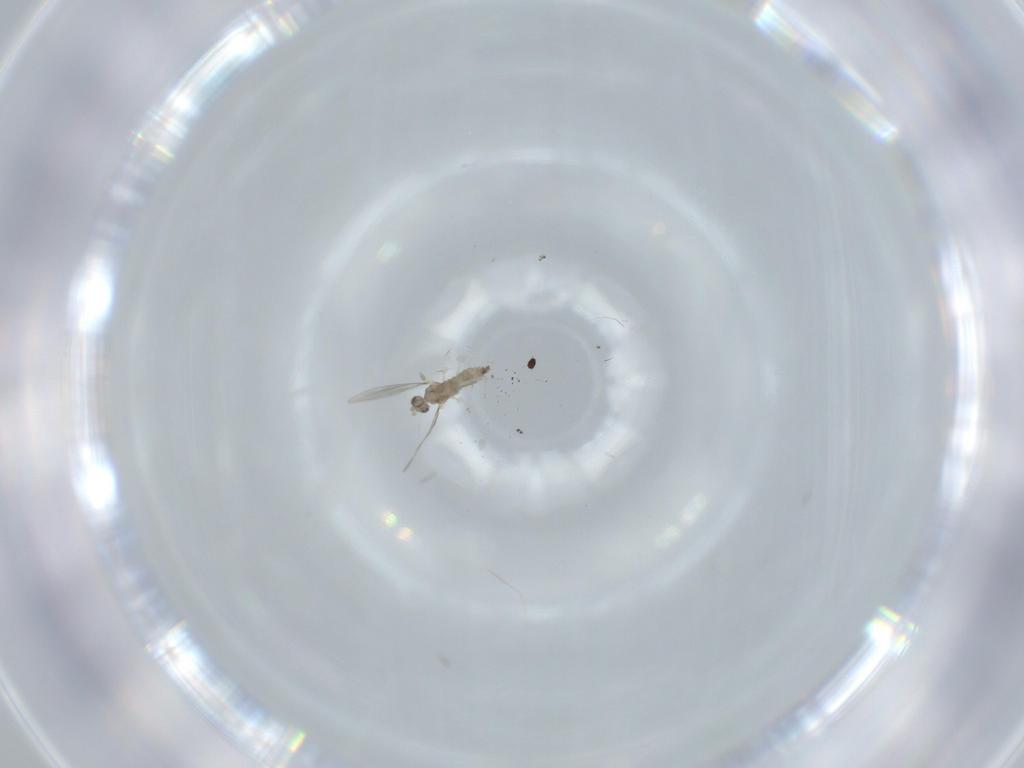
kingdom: Animalia
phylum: Arthropoda
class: Insecta
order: Diptera
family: Cecidomyiidae
